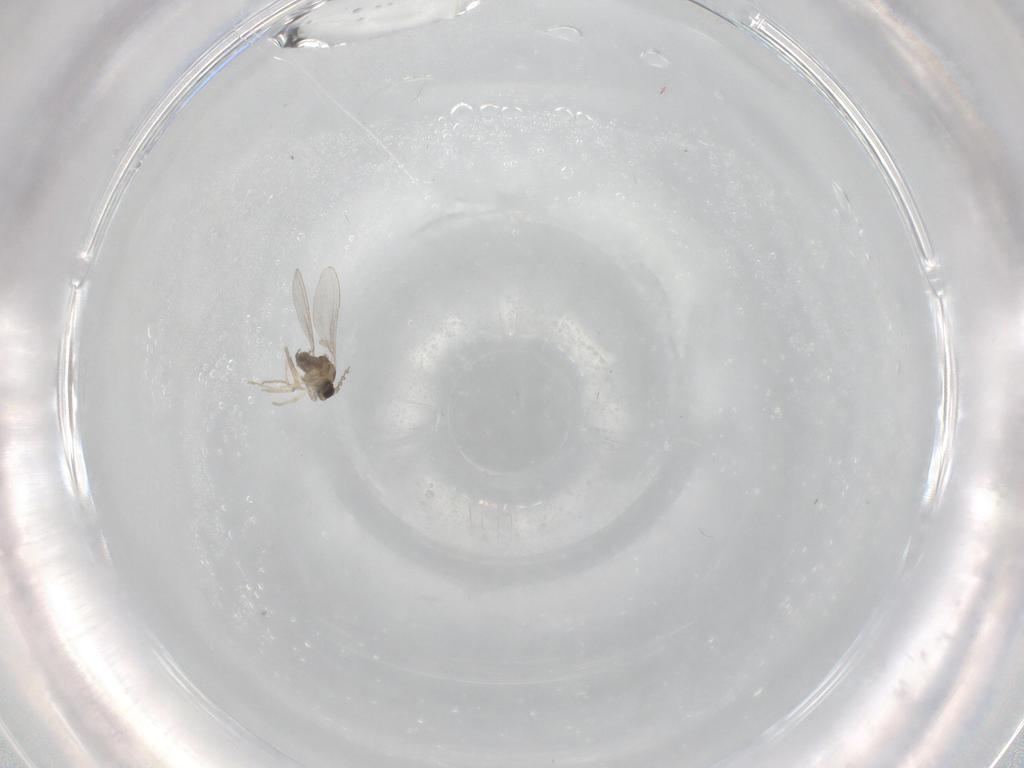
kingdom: Animalia
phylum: Arthropoda
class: Insecta
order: Diptera
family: Cecidomyiidae
